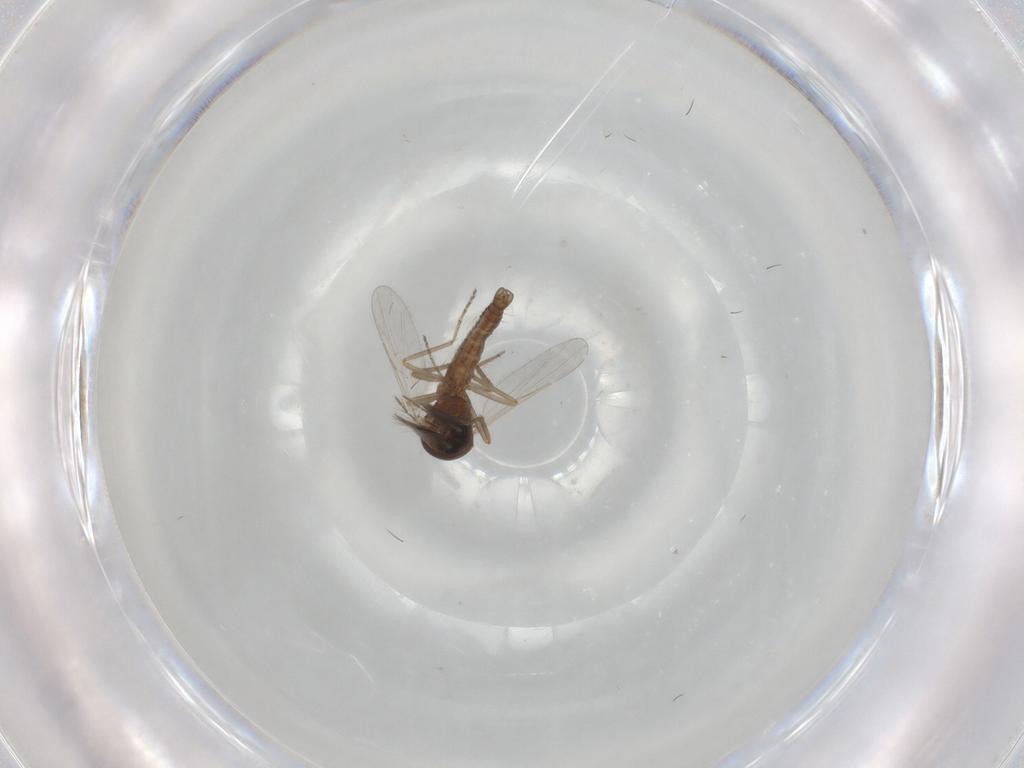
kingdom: Animalia
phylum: Arthropoda
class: Insecta
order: Diptera
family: Ceratopogonidae
